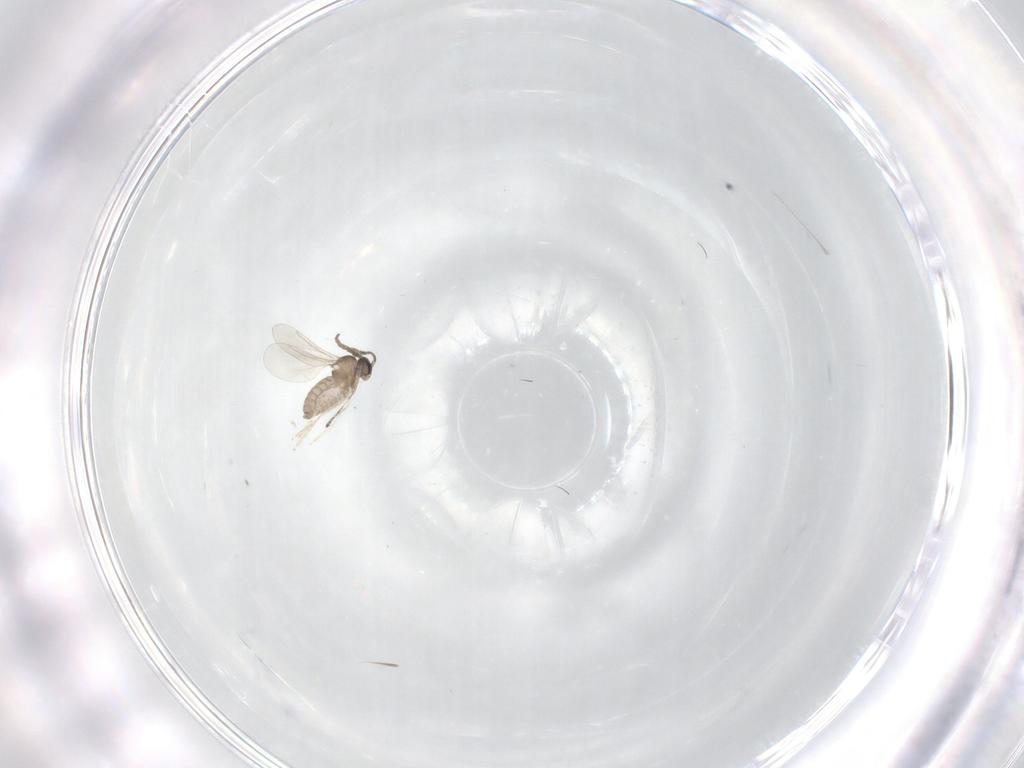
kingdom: Animalia
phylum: Arthropoda
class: Insecta
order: Diptera
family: Cecidomyiidae
